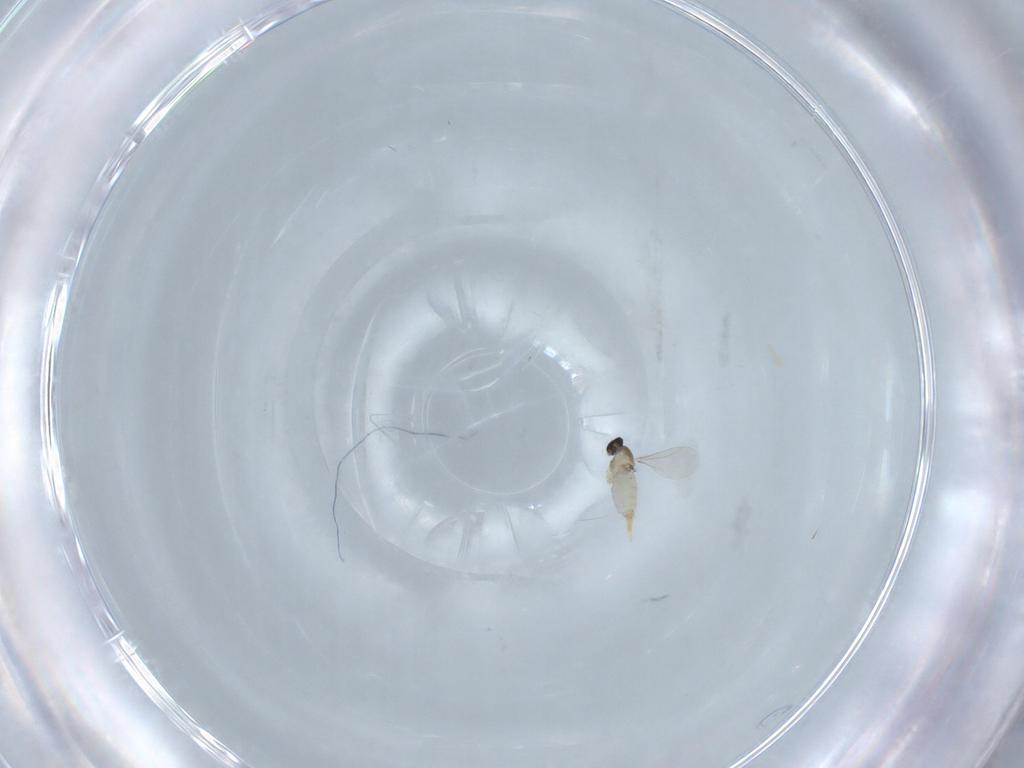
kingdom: Animalia
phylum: Arthropoda
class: Insecta
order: Diptera
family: Cecidomyiidae
